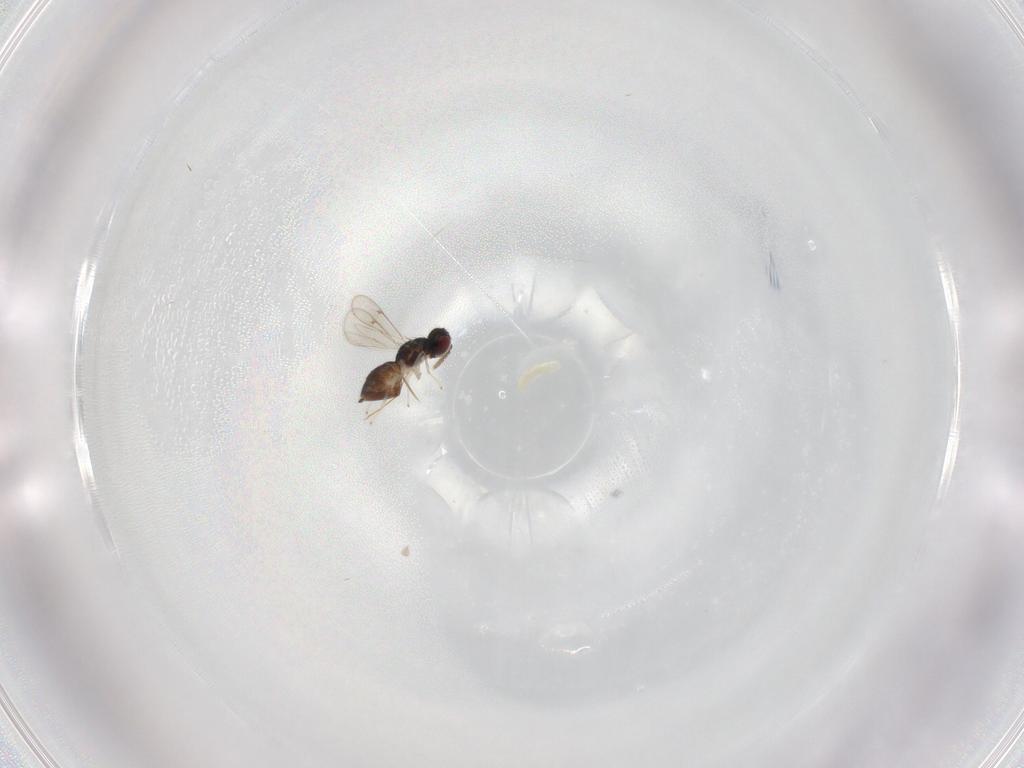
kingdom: Animalia
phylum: Arthropoda
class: Insecta
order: Hymenoptera
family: Eulophidae
